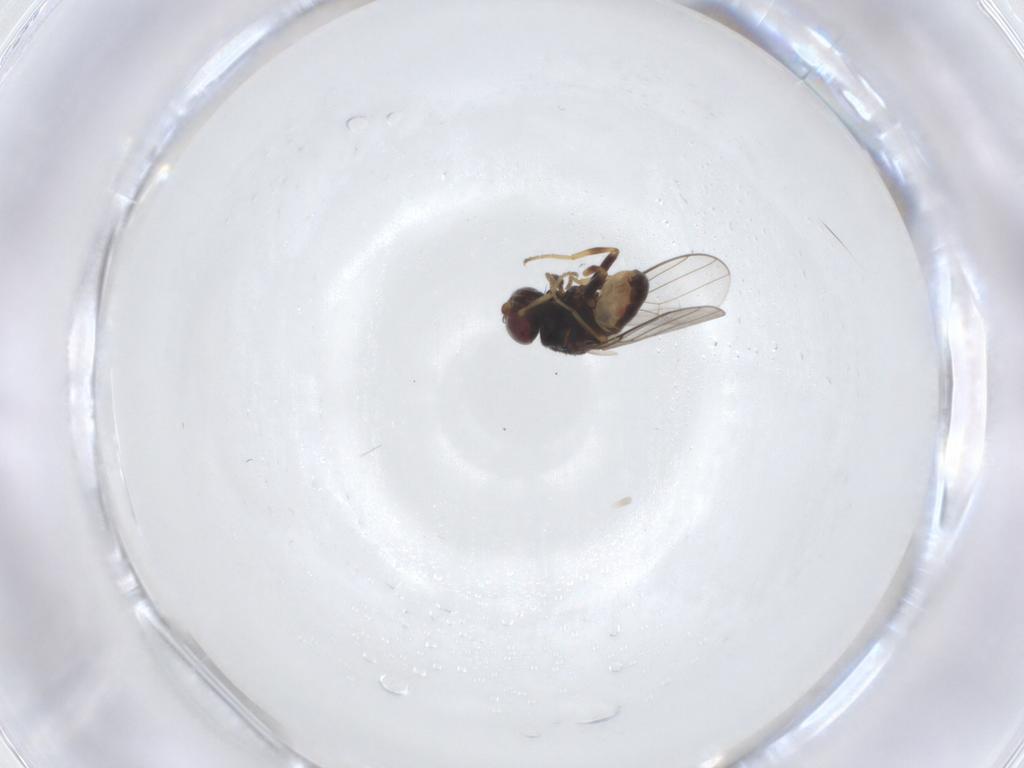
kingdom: Animalia
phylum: Arthropoda
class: Insecta
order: Diptera
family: Chloropidae
